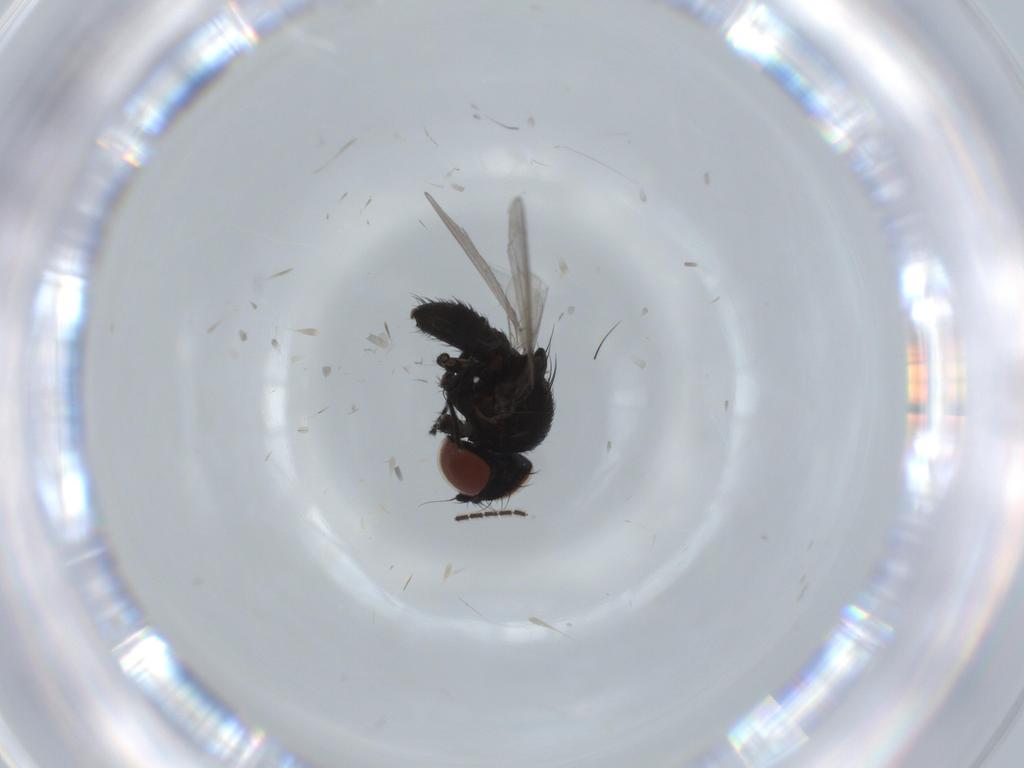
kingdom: Animalia
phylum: Arthropoda
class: Insecta
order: Diptera
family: Sciaridae
